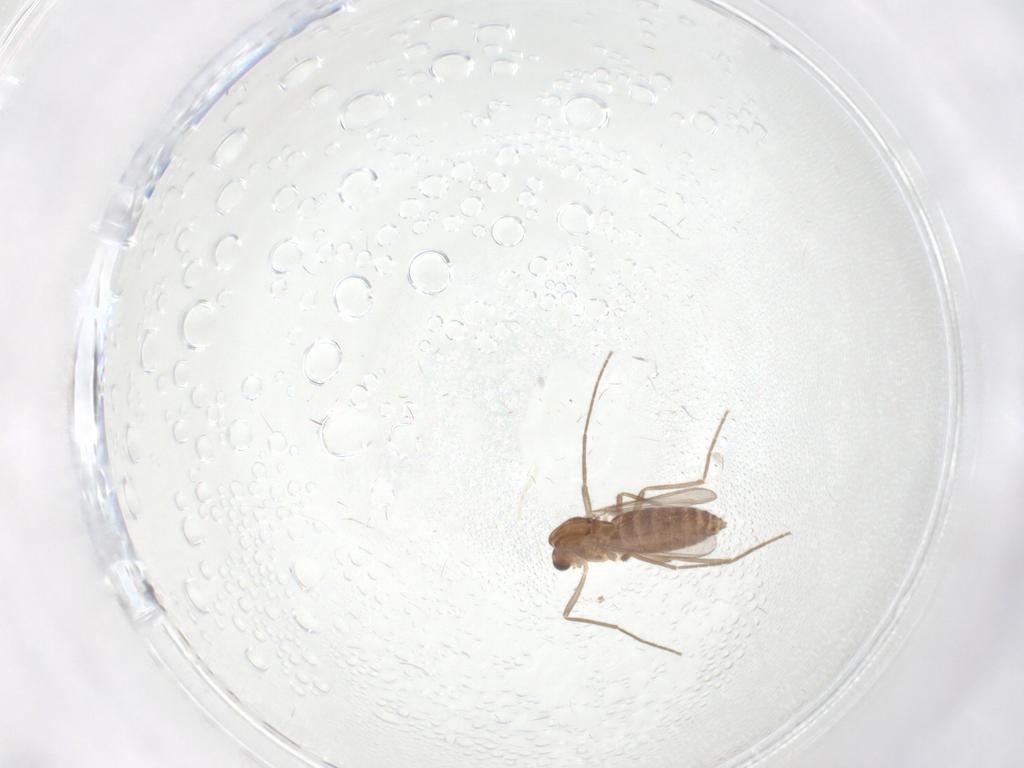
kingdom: Animalia
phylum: Arthropoda
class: Insecta
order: Diptera
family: Chironomidae
